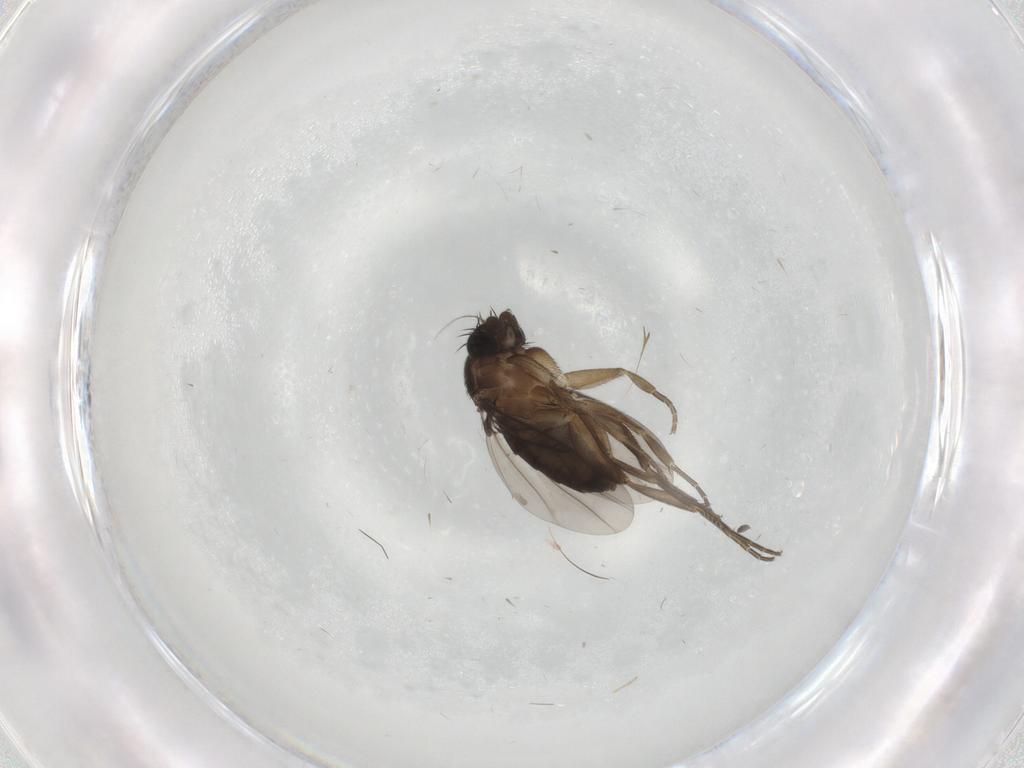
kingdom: Animalia
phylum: Arthropoda
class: Insecta
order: Diptera
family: Phoridae
